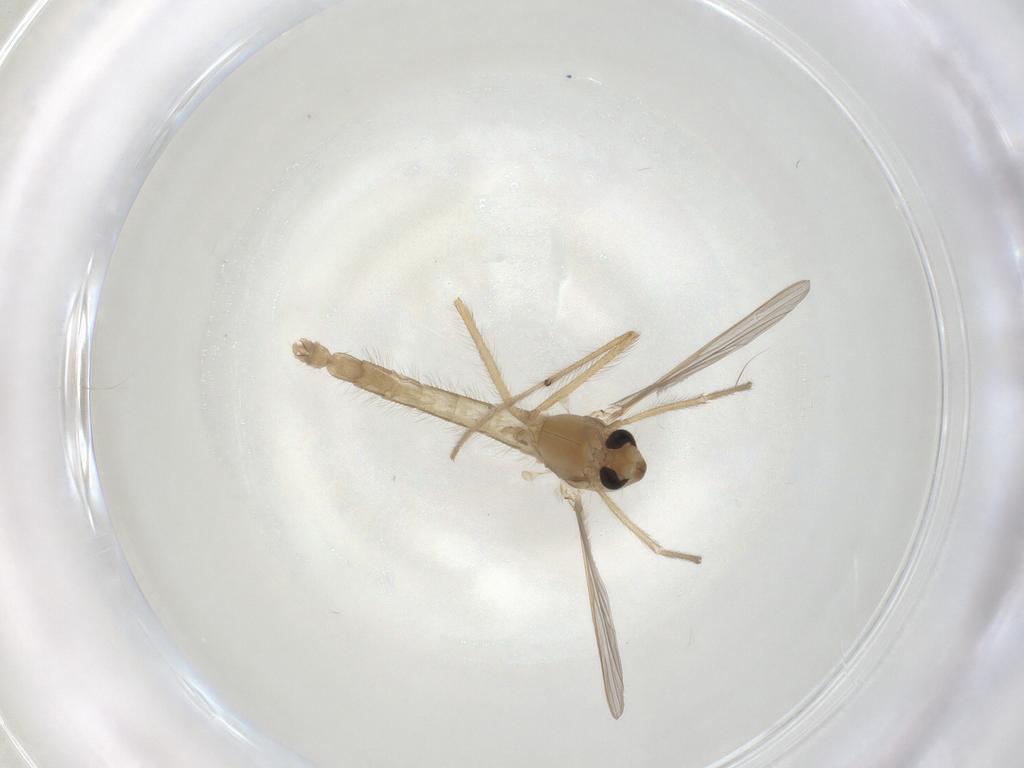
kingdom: Animalia
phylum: Arthropoda
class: Insecta
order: Diptera
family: Chironomidae
